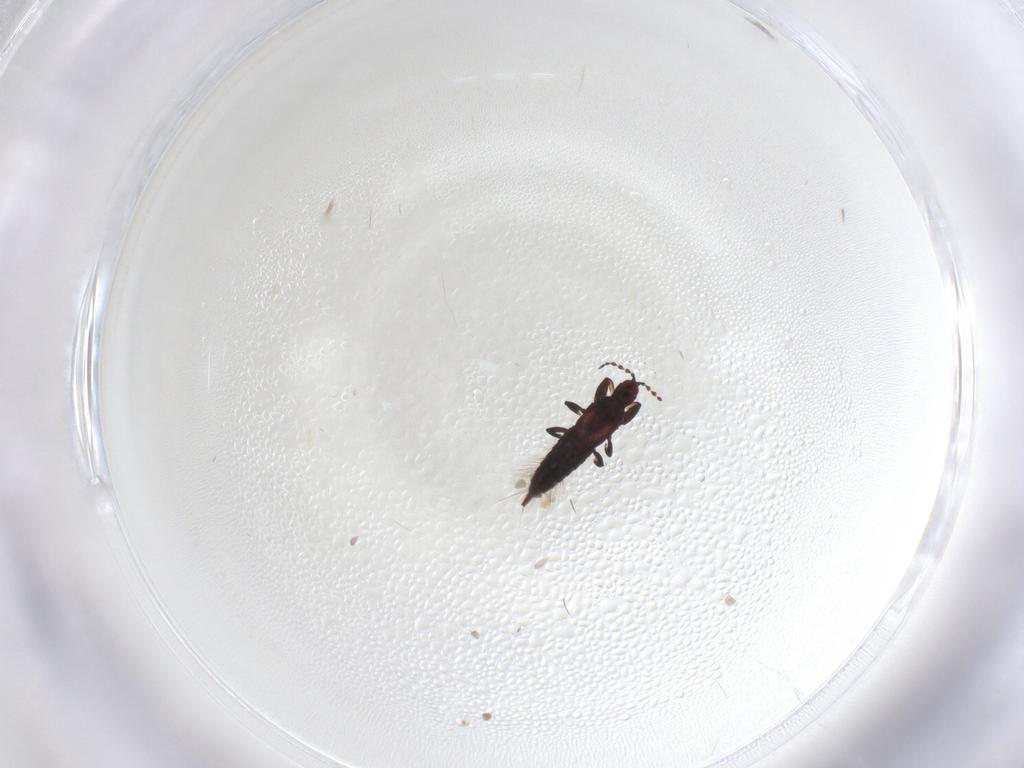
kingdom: Animalia
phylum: Arthropoda
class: Insecta
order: Thysanoptera
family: Phlaeothripidae
